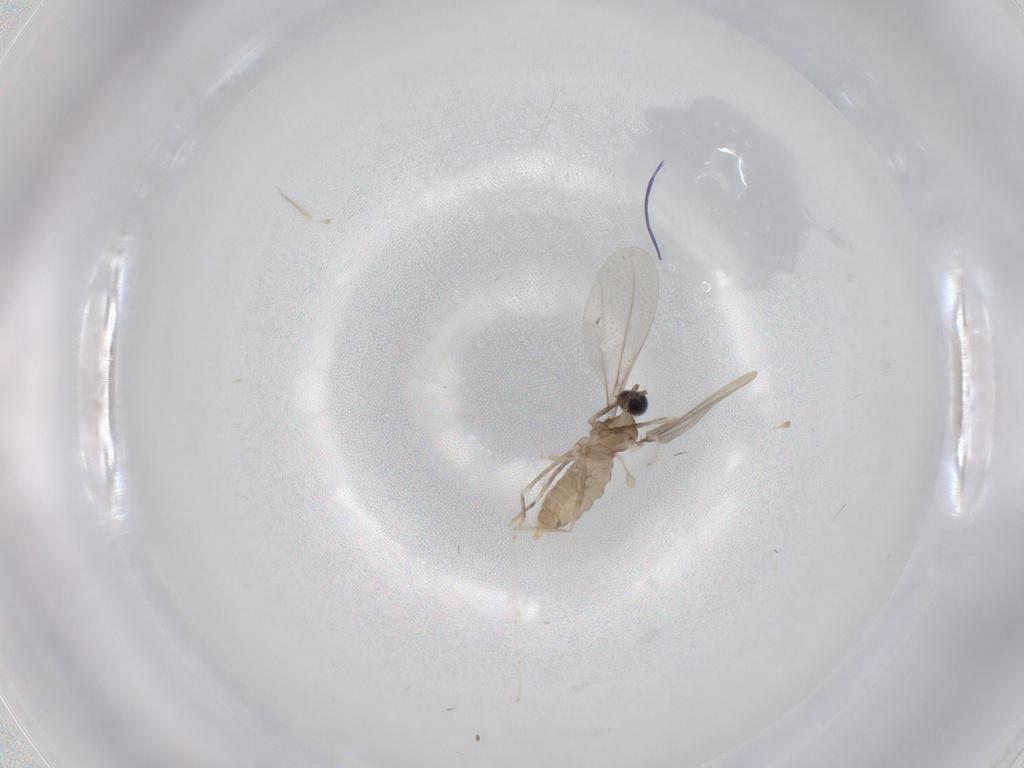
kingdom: Animalia
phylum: Arthropoda
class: Insecta
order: Diptera
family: Cecidomyiidae
